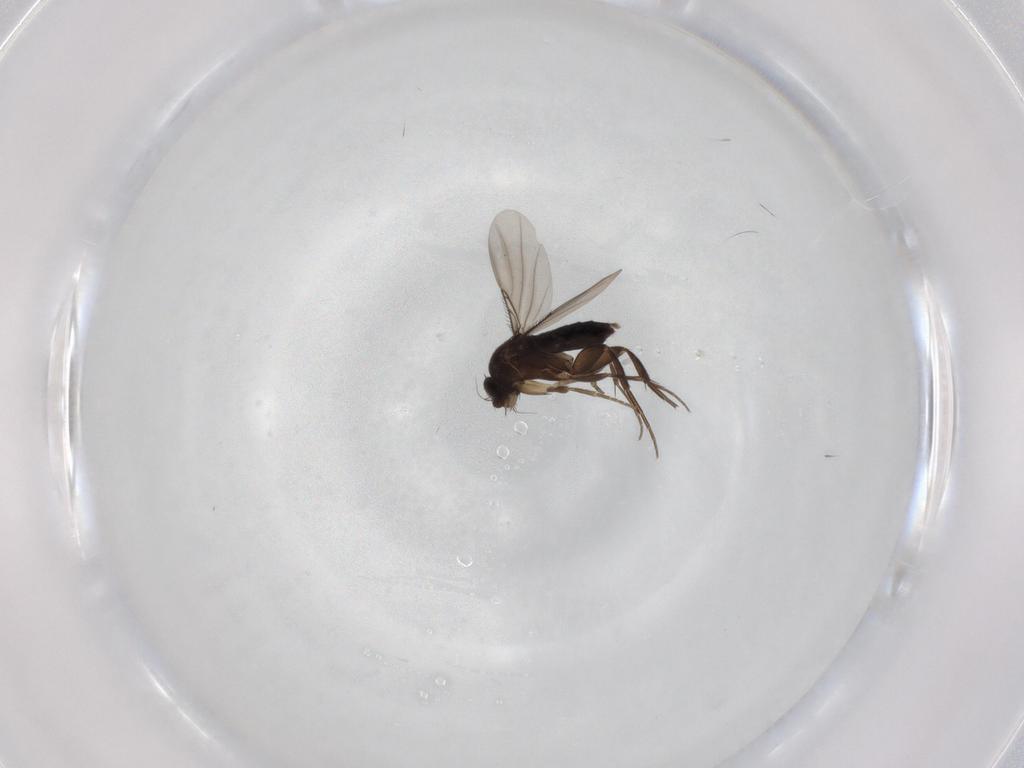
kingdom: Animalia
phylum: Arthropoda
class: Insecta
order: Diptera
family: Phoridae
